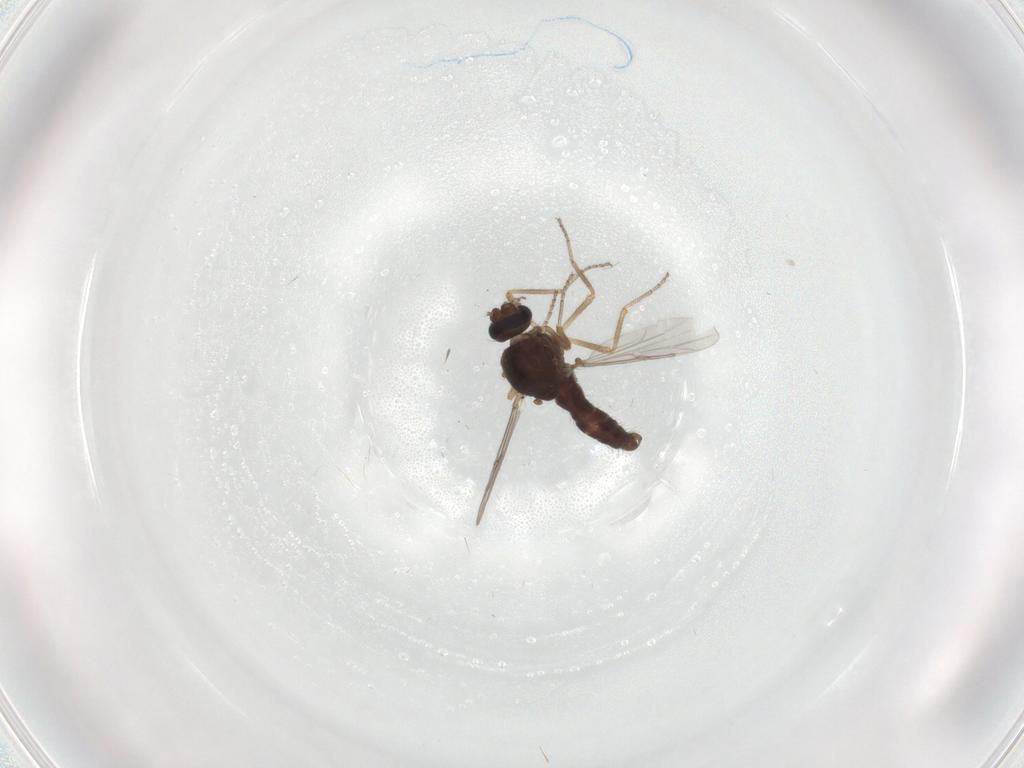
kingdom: Animalia
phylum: Arthropoda
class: Insecta
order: Diptera
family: Ceratopogonidae
